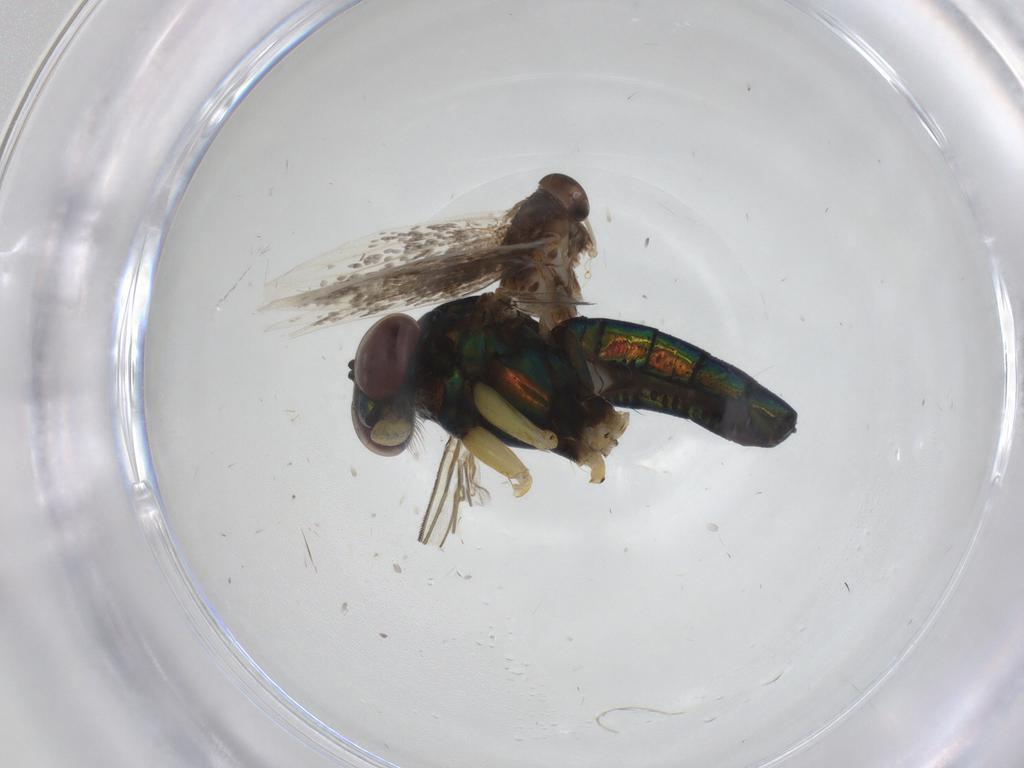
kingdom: Animalia
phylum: Arthropoda
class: Insecta
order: Diptera
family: Dolichopodidae
